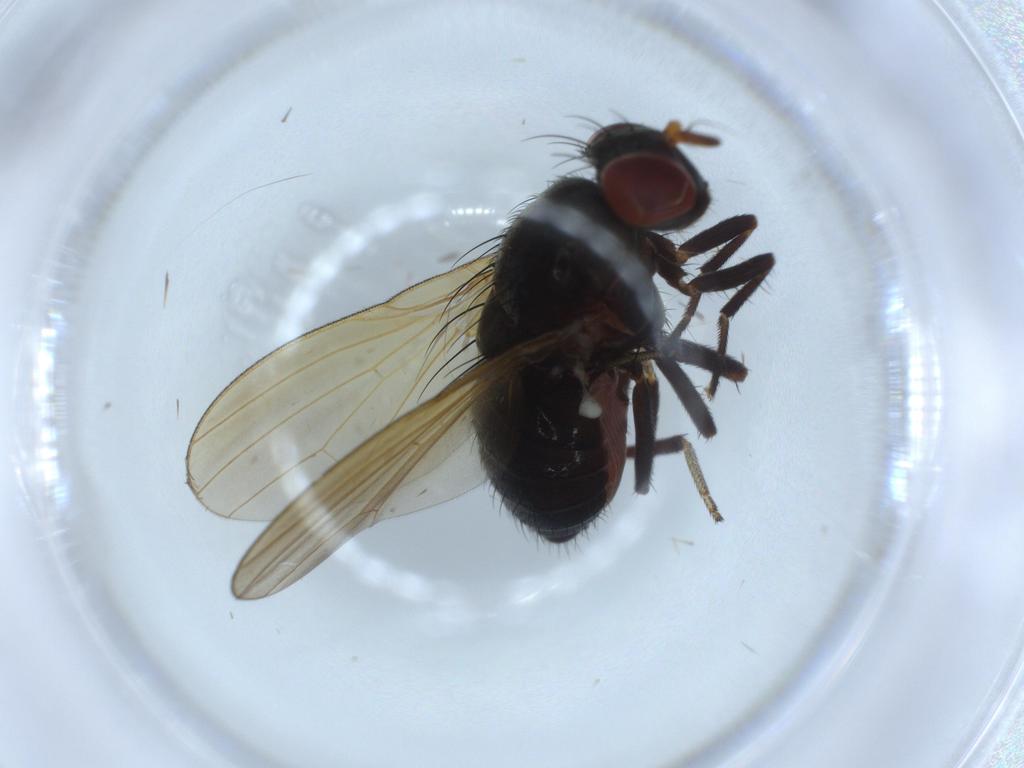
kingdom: Animalia
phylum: Arthropoda
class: Insecta
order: Diptera
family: Lauxaniidae
